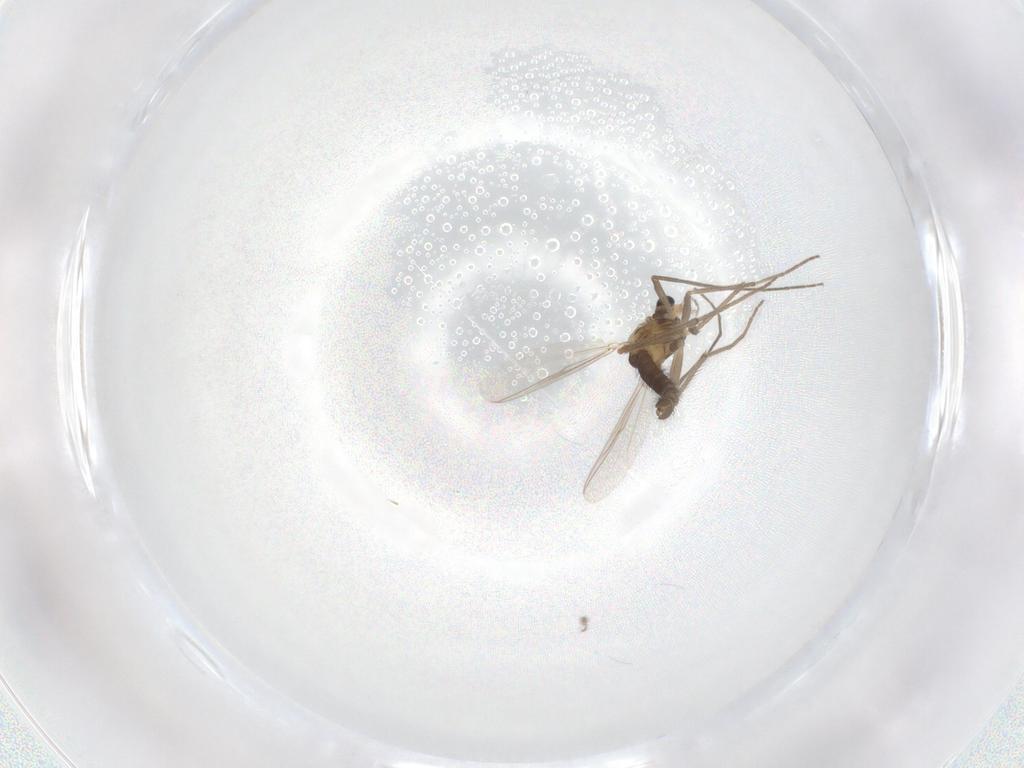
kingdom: Animalia
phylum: Arthropoda
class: Insecta
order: Diptera
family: Chironomidae
